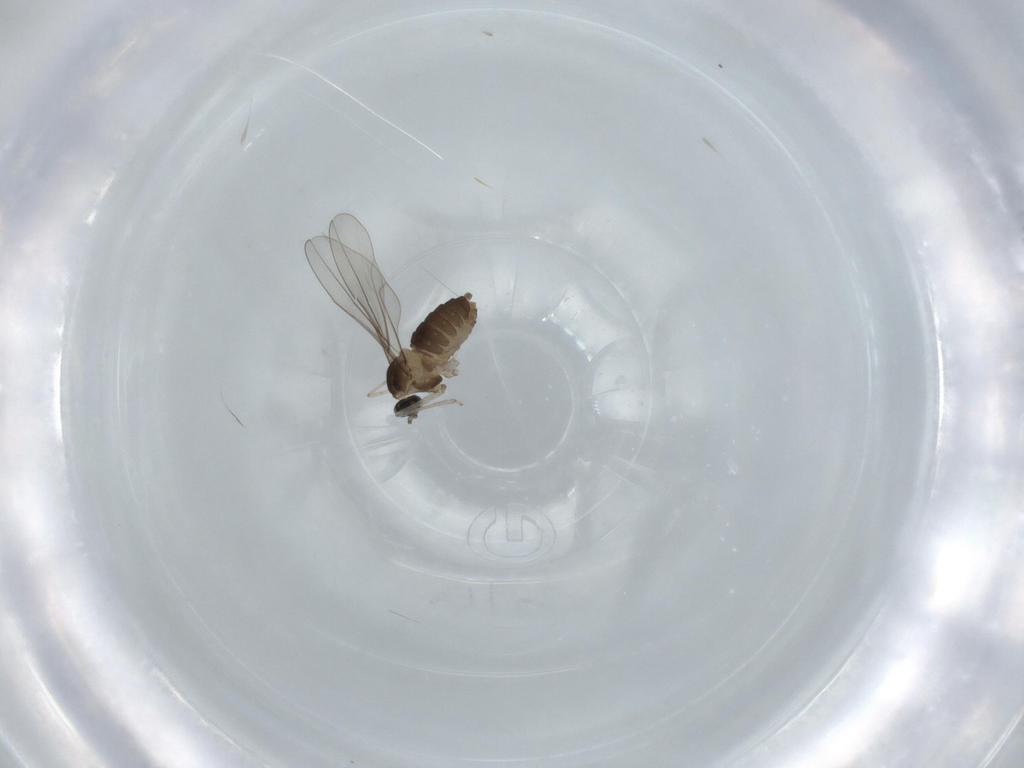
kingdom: Animalia
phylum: Arthropoda
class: Insecta
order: Diptera
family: Cecidomyiidae
